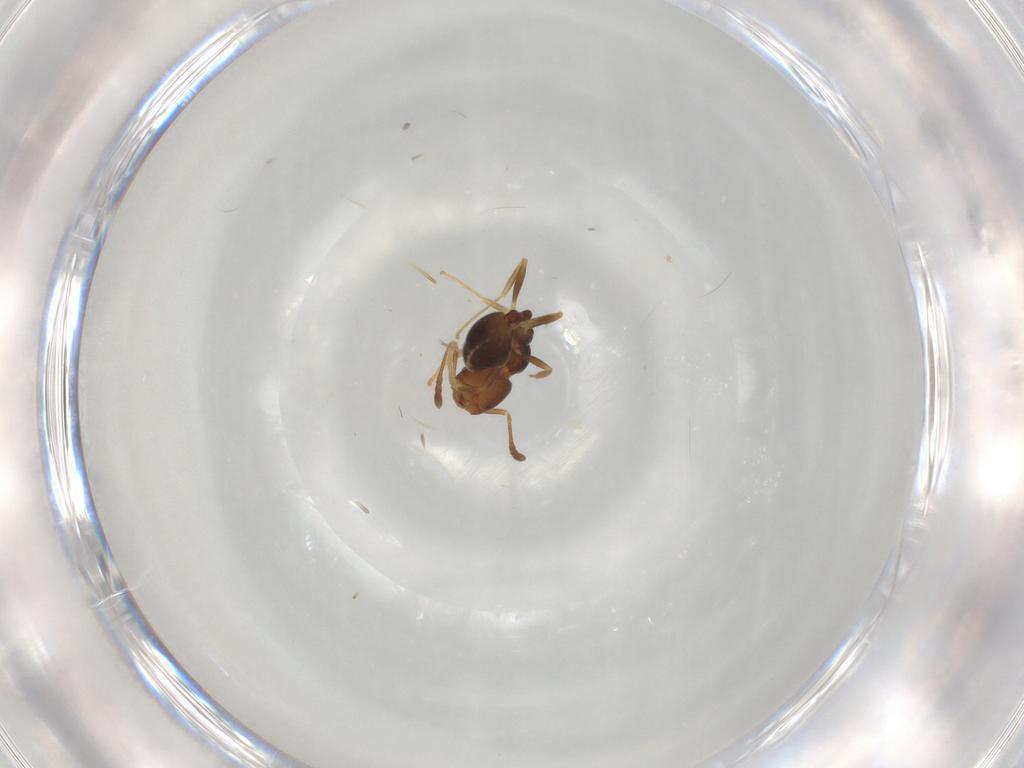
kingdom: Animalia
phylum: Arthropoda
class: Insecta
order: Hymenoptera
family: Formicidae
